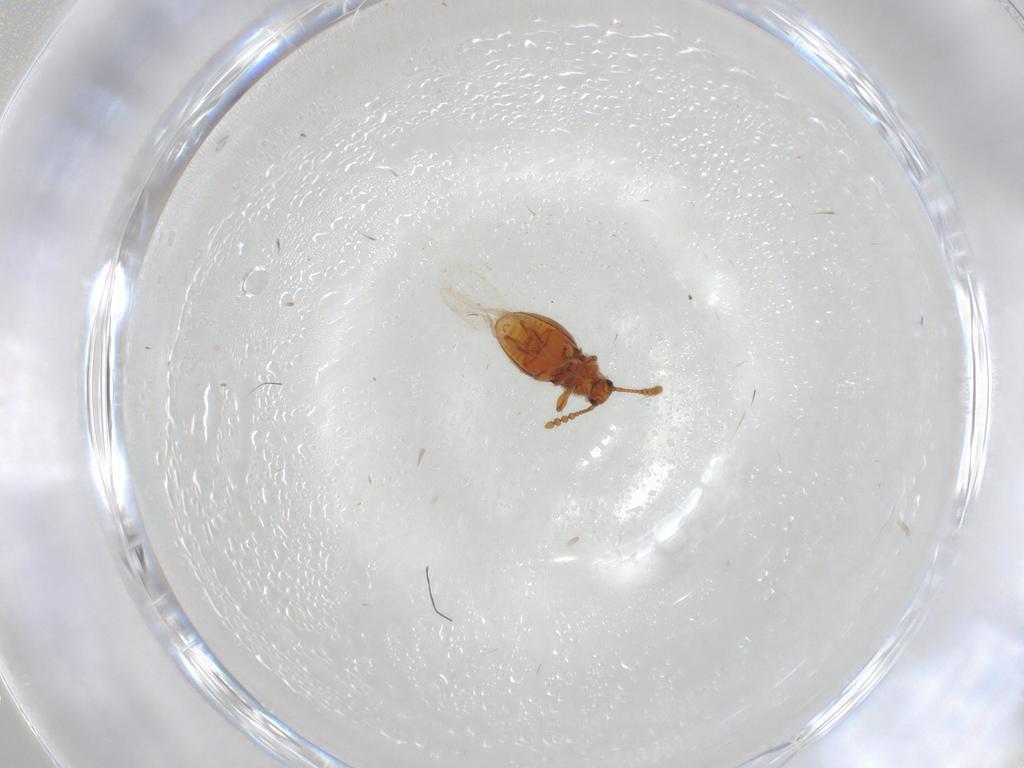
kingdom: Animalia
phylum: Arthropoda
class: Insecta
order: Coleoptera
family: Staphylinidae
